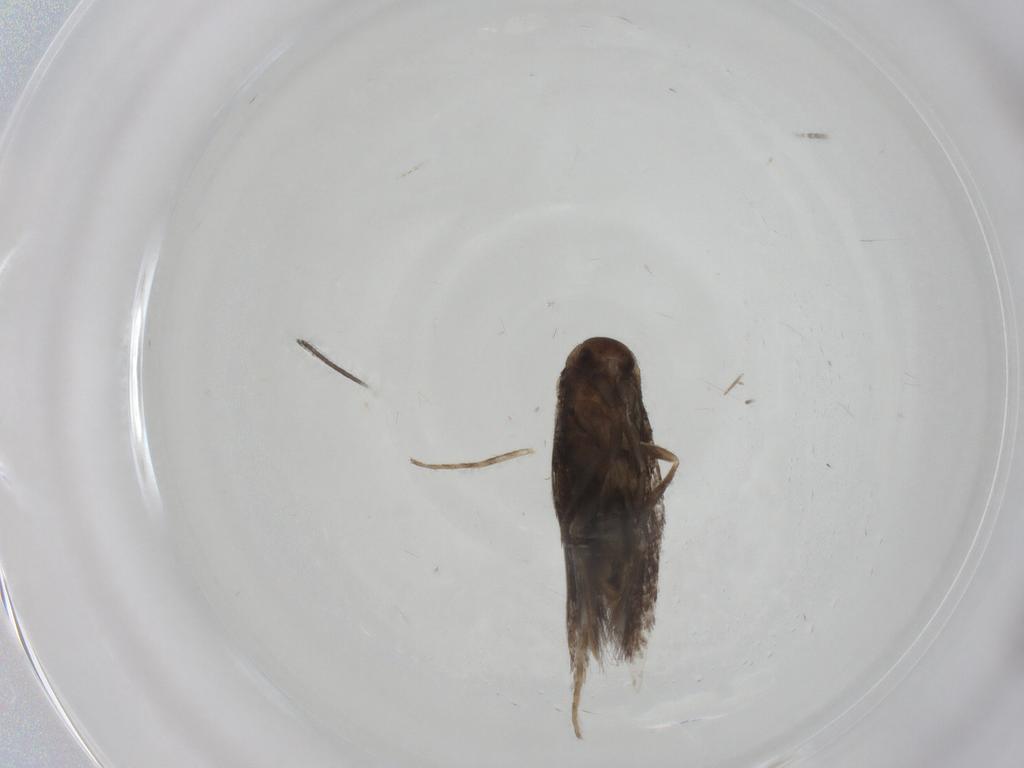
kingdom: Animalia
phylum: Arthropoda
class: Insecta
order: Lepidoptera
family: Elachistidae
